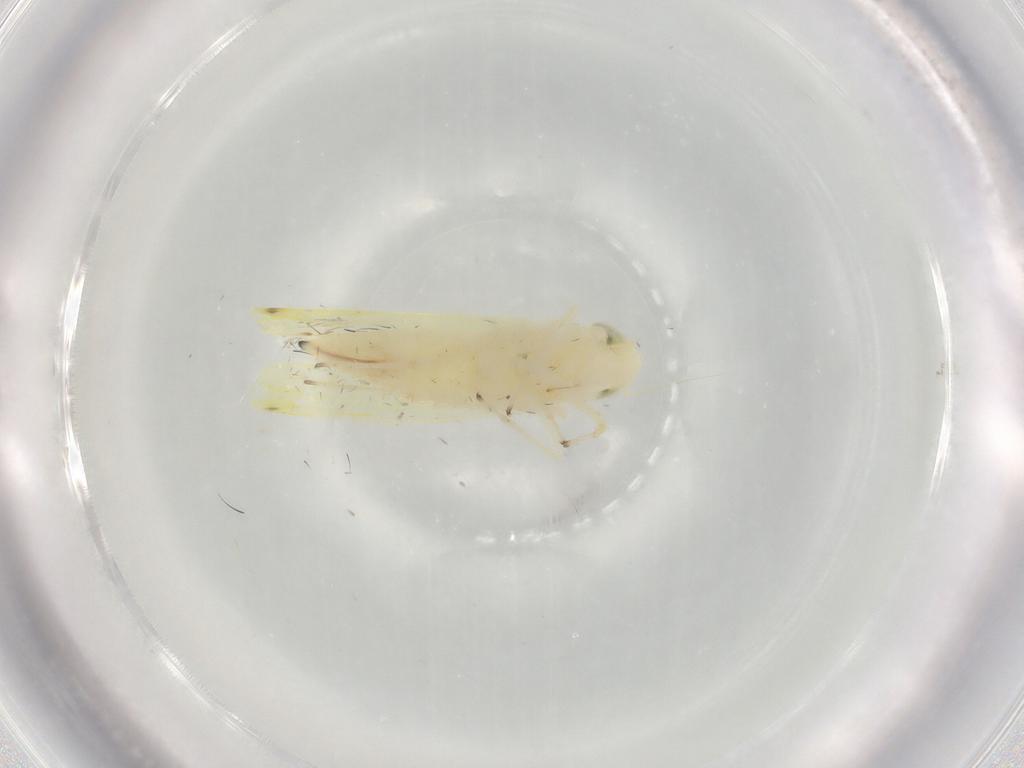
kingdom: Animalia
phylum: Arthropoda
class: Insecta
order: Hemiptera
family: Cicadellidae
